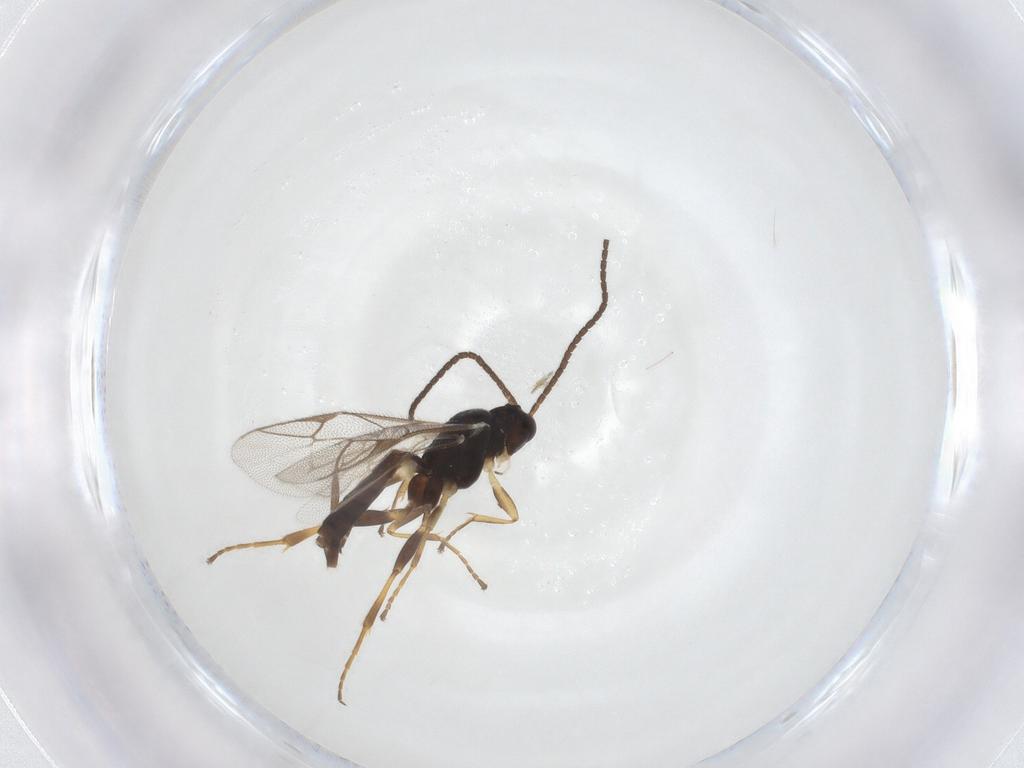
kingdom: Animalia
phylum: Arthropoda
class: Insecta
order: Hymenoptera
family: Ichneumonidae
